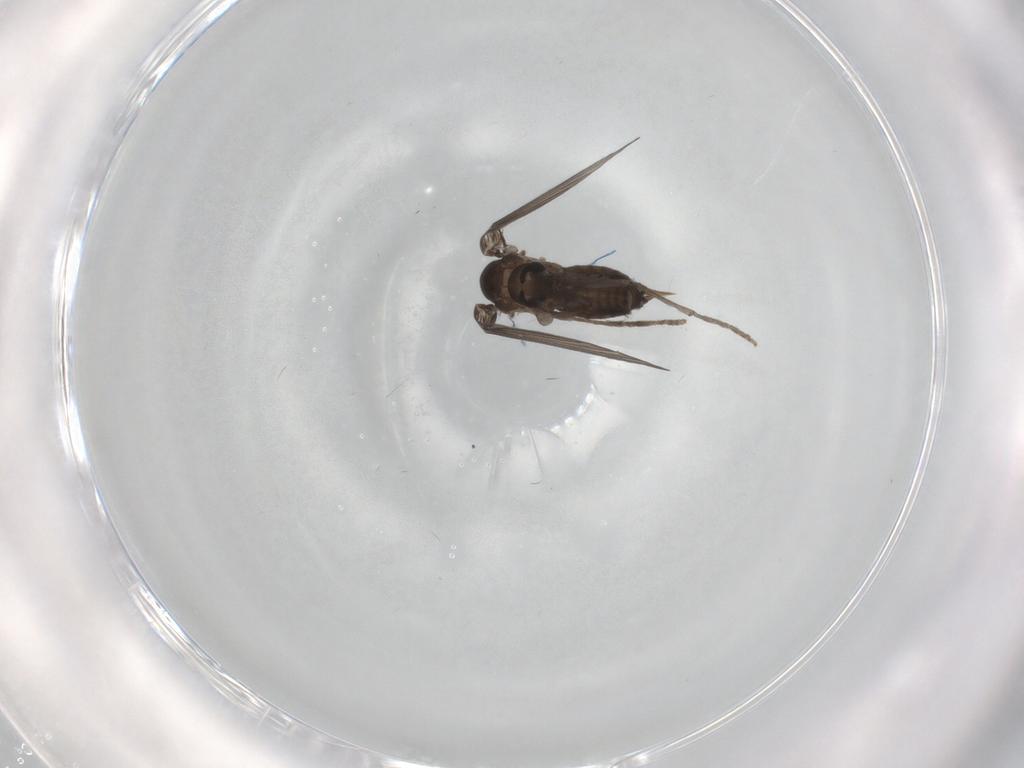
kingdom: Animalia
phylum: Arthropoda
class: Insecta
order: Diptera
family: Psychodidae
